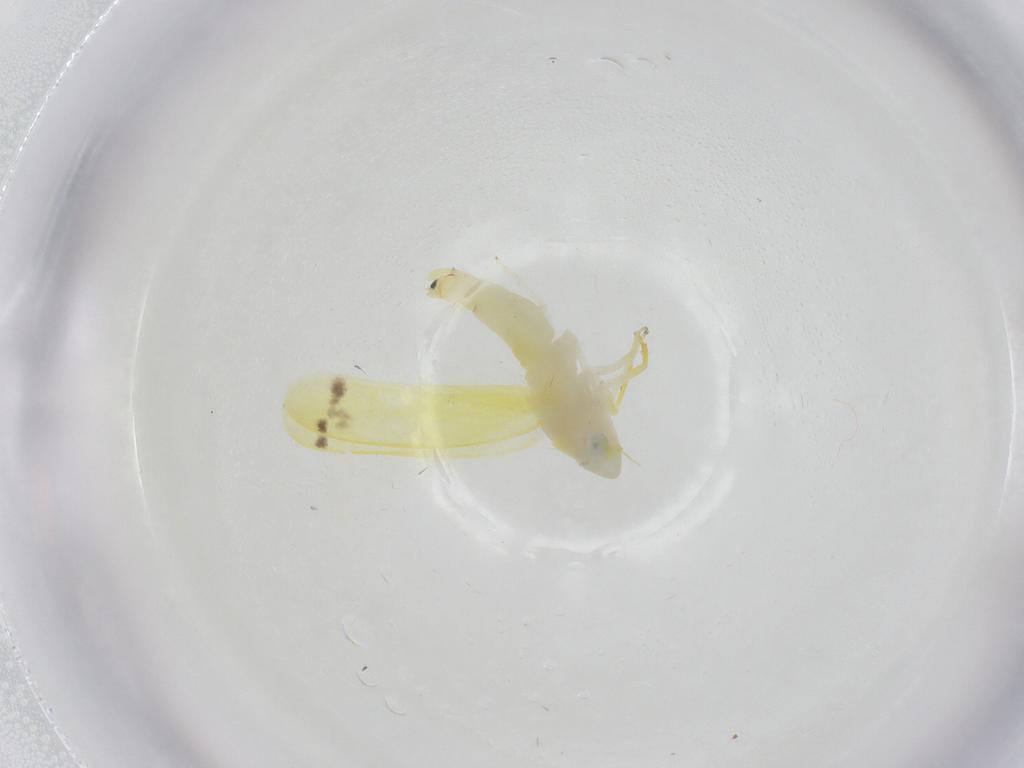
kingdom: Animalia
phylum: Arthropoda
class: Insecta
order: Hemiptera
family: Cicadellidae
